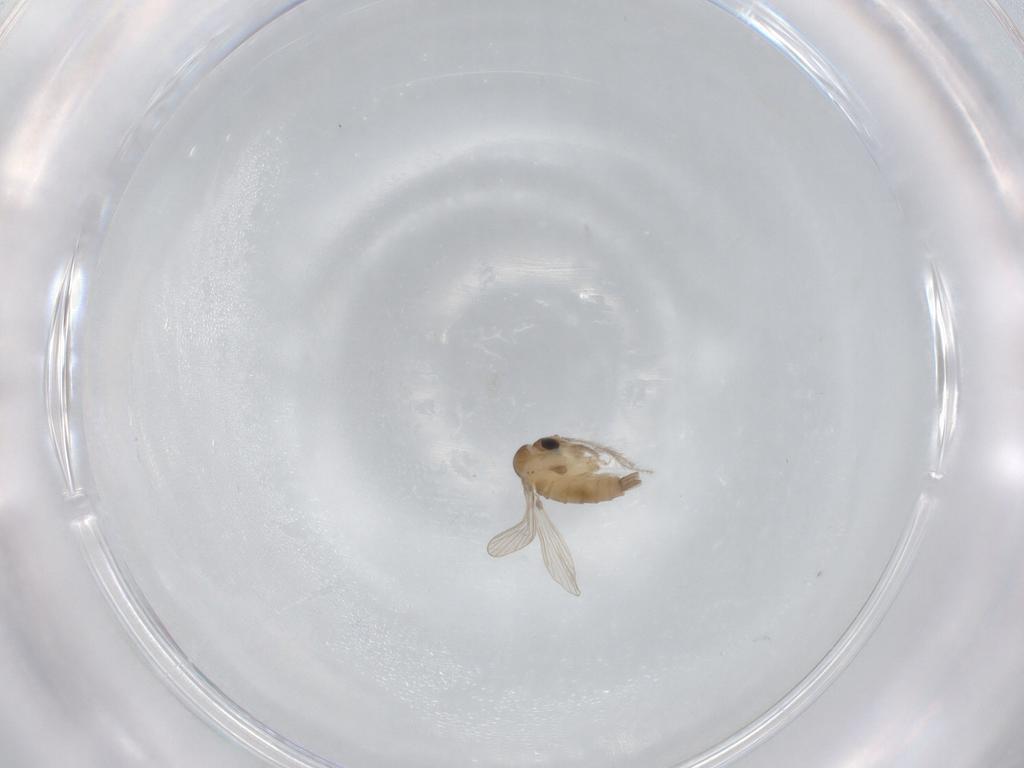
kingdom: Animalia
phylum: Arthropoda
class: Insecta
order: Diptera
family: Psychodidae
